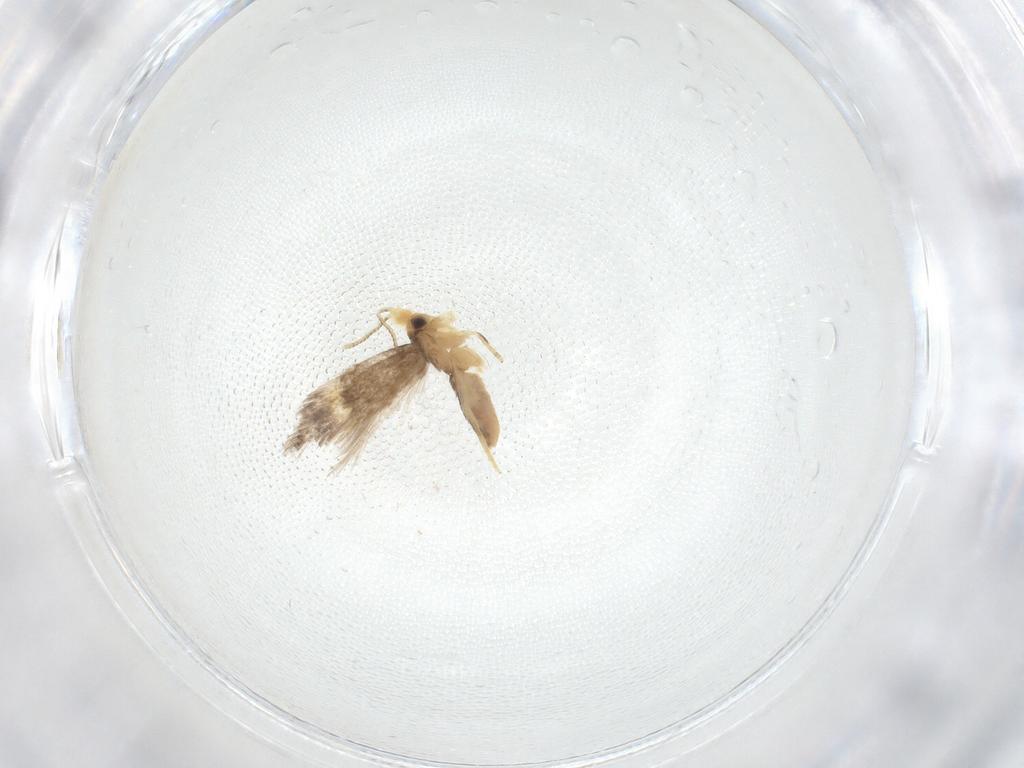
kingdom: Animalia
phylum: Arthropoda
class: Insecta
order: Lepidoptera
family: Nepticulidae
